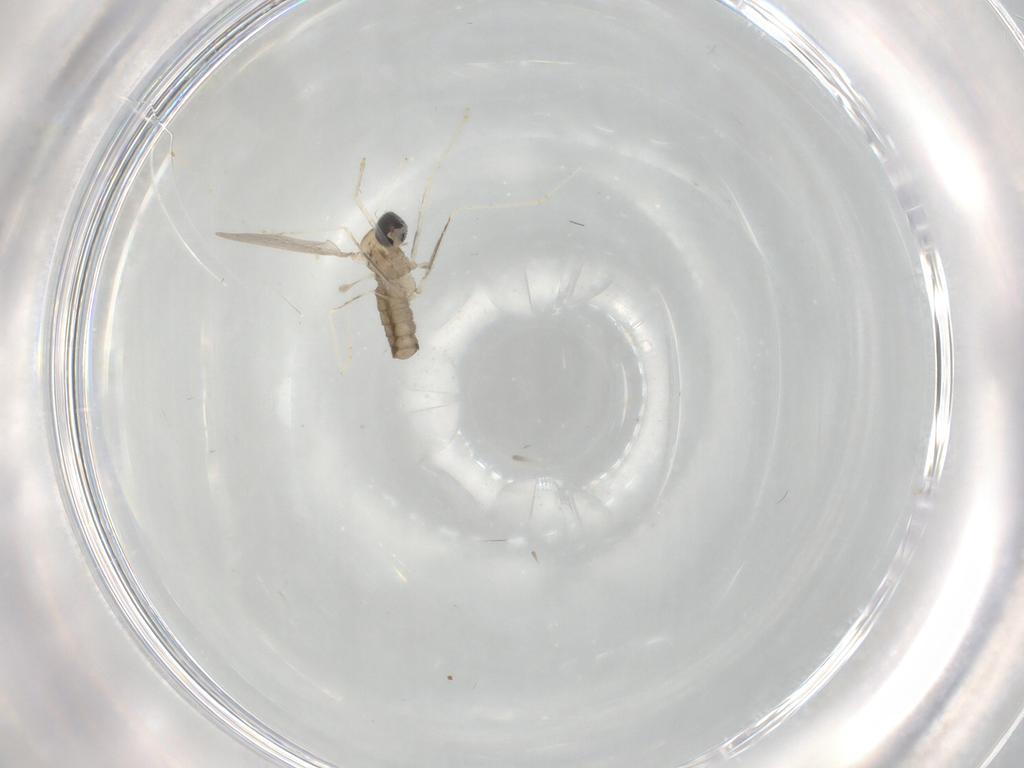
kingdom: Animalia
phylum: Arthropoda
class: Insecta
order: Diptera
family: Cecidomyiidae
